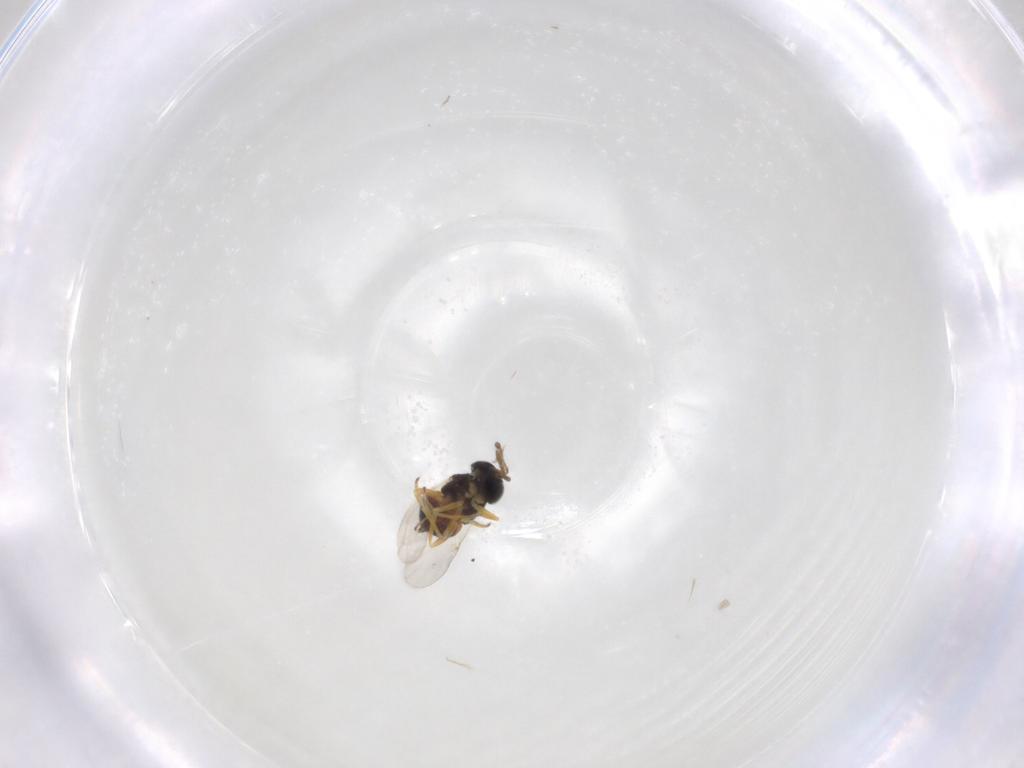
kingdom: Animalia
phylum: Arthropoda
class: Insecta
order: Hymenoptera
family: Encyrtidae
